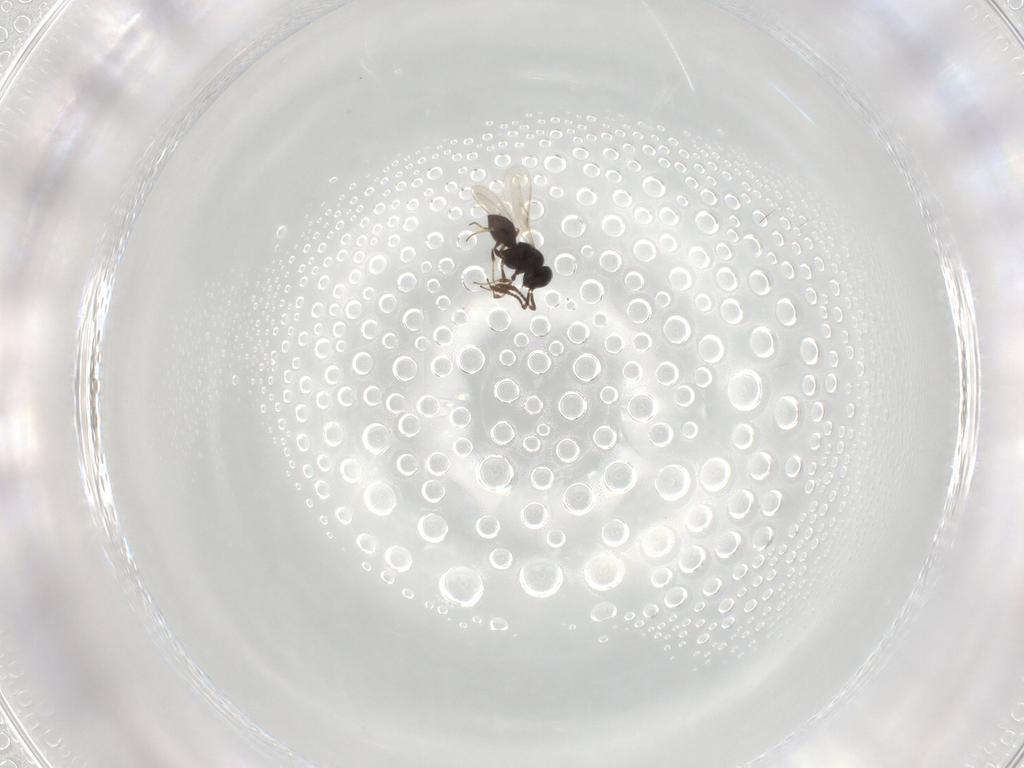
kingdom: Animalia
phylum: Arthropoda
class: Insecta
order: Hymenoptera
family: Scelionidae
